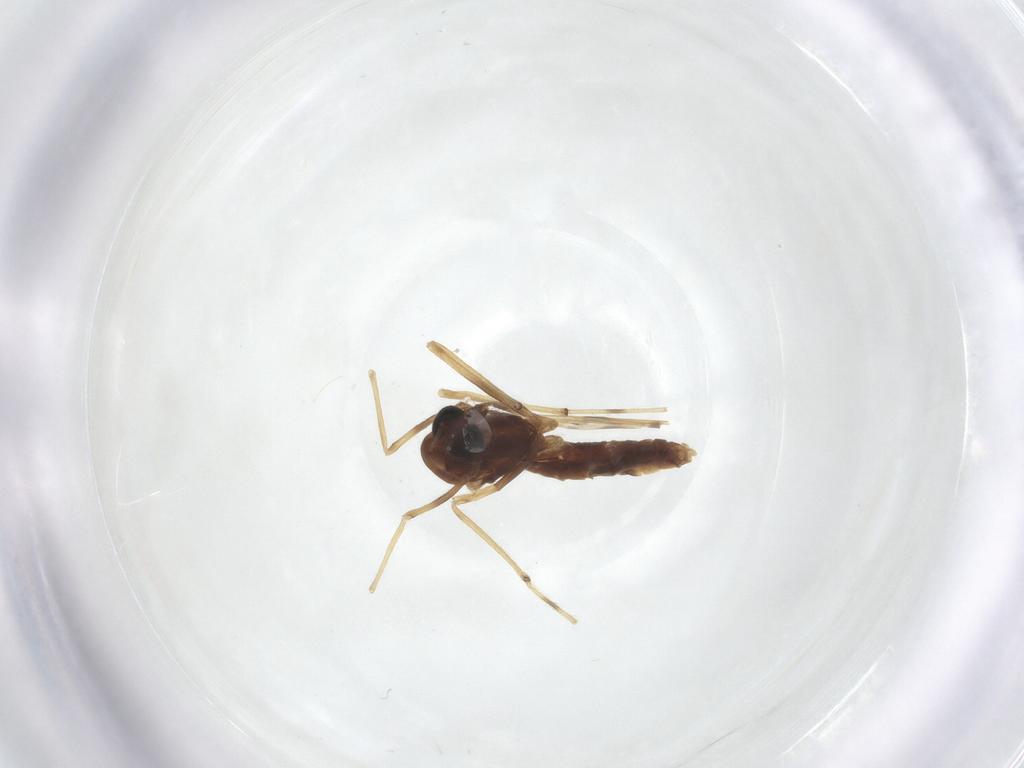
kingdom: Animalia
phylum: Arthropoda
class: Insecta
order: Diptera
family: Chironomidae
